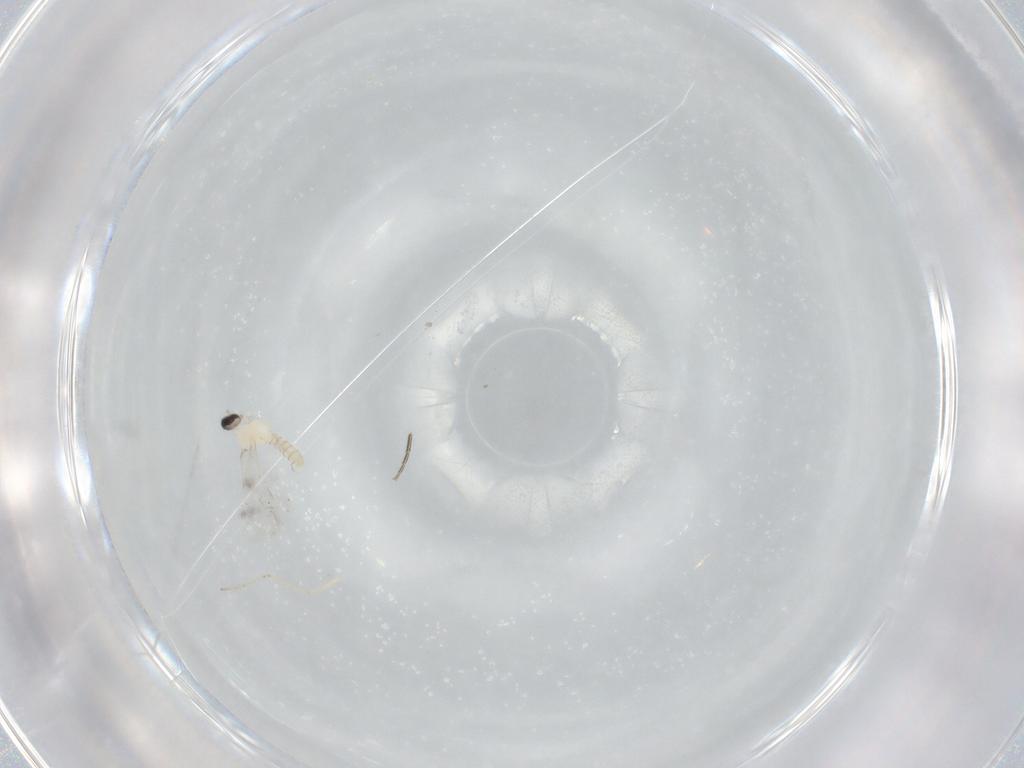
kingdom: Animalia
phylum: Arthropoda
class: Insecta
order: Diptera
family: Cecidomyiidae
